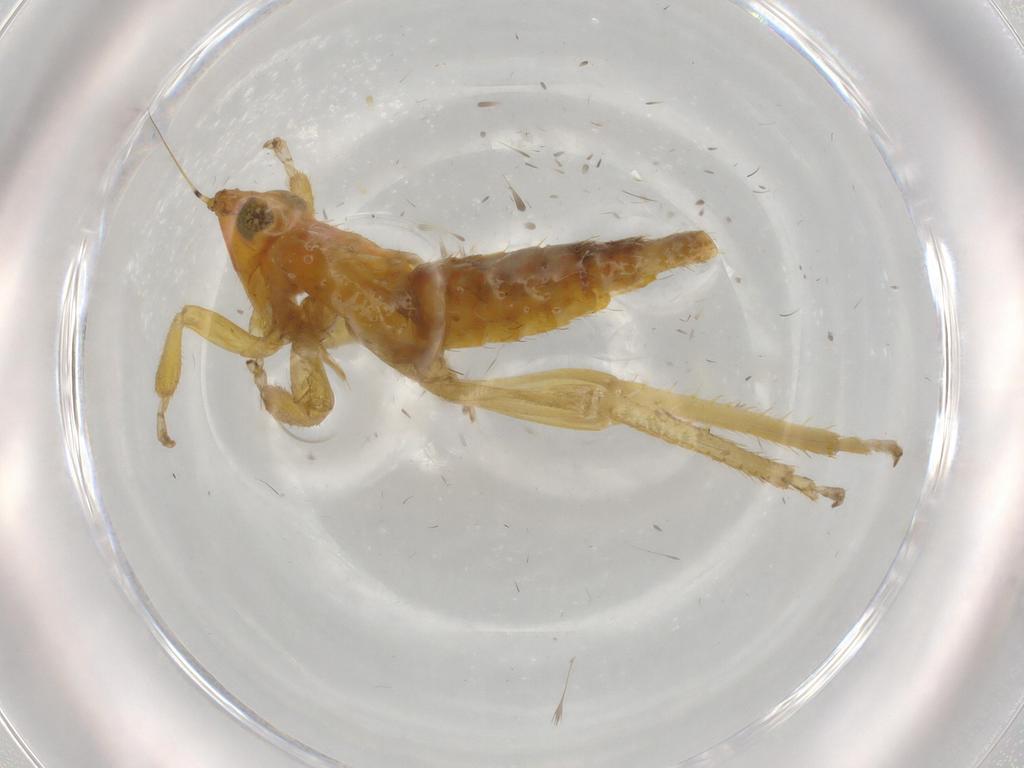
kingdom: Animalia
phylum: Arthropoda
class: Insecta
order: Hemiptera
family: Cicadellidae
